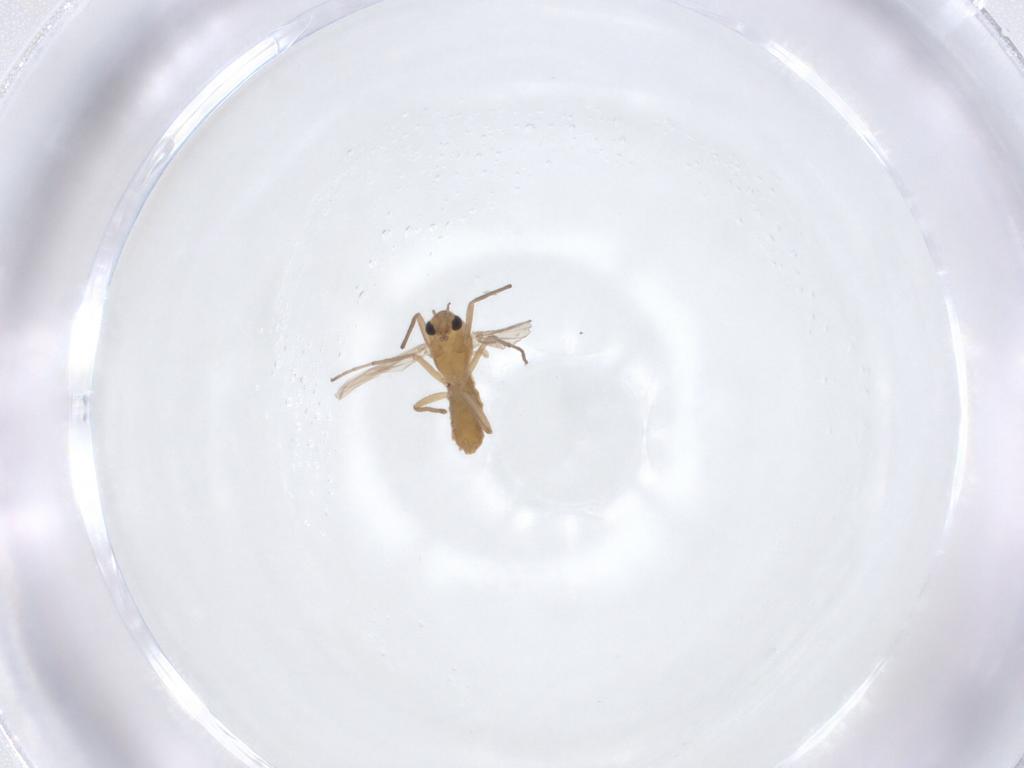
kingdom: Animalia
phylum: Arthropoda
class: Insecta
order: Diptera
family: Chironomidae
